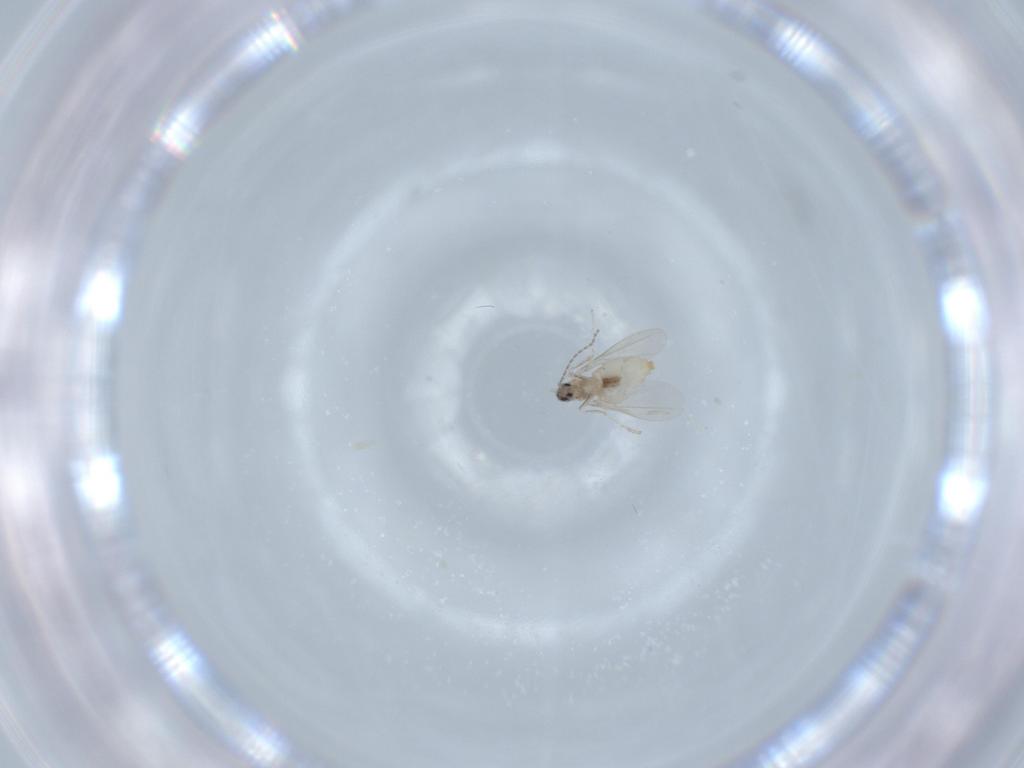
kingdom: Animalia
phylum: Arthropoda
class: Insecta
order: Diptera
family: Cecidomyiidae
